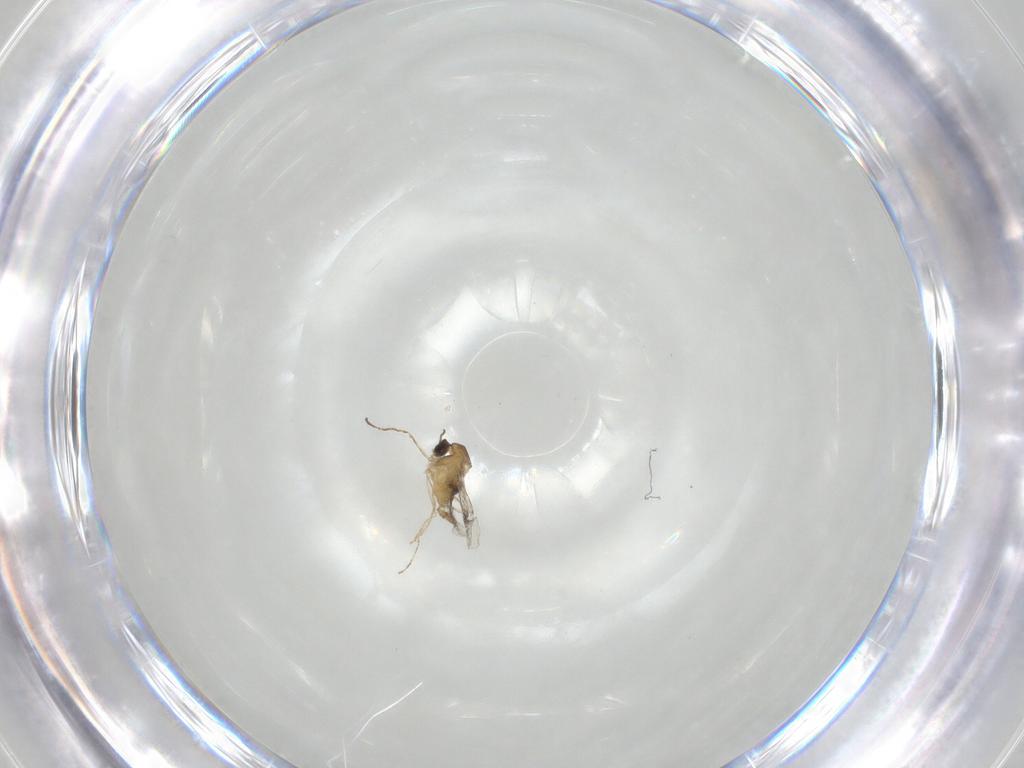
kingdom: Animalia
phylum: Arthropoda
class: Insecta
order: Diptera
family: Cecidomyiidae
